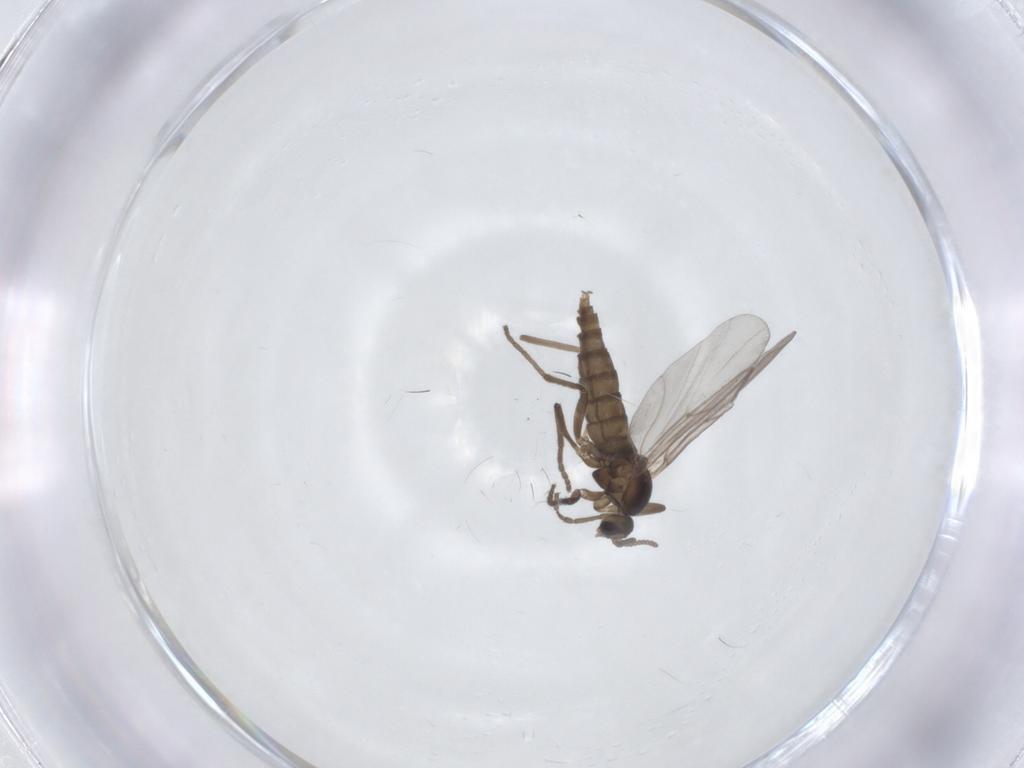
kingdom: Animalia
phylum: Arthropoda
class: Insecta
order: Diptera
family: Cecidomyiidae
